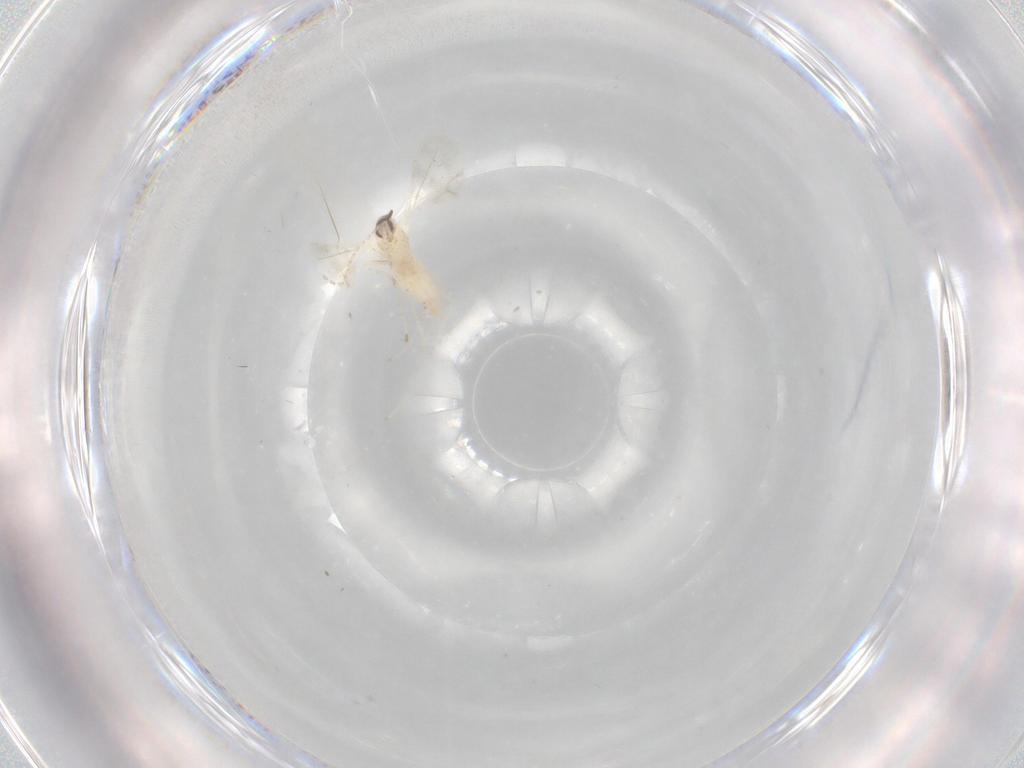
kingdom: Animalia
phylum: Arthropoda
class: Insecta
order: Diptera
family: Cecidomyiidae
